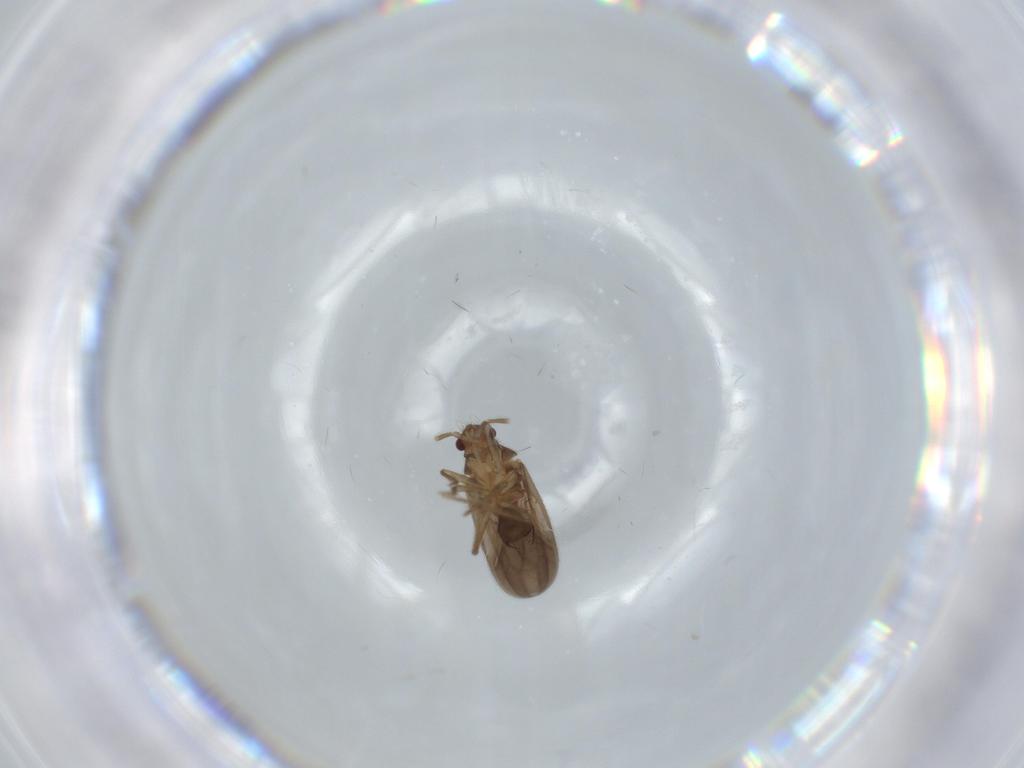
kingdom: Animalia
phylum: Arthropoda
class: Insecta
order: Hemiptera
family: Ceratocombidae
